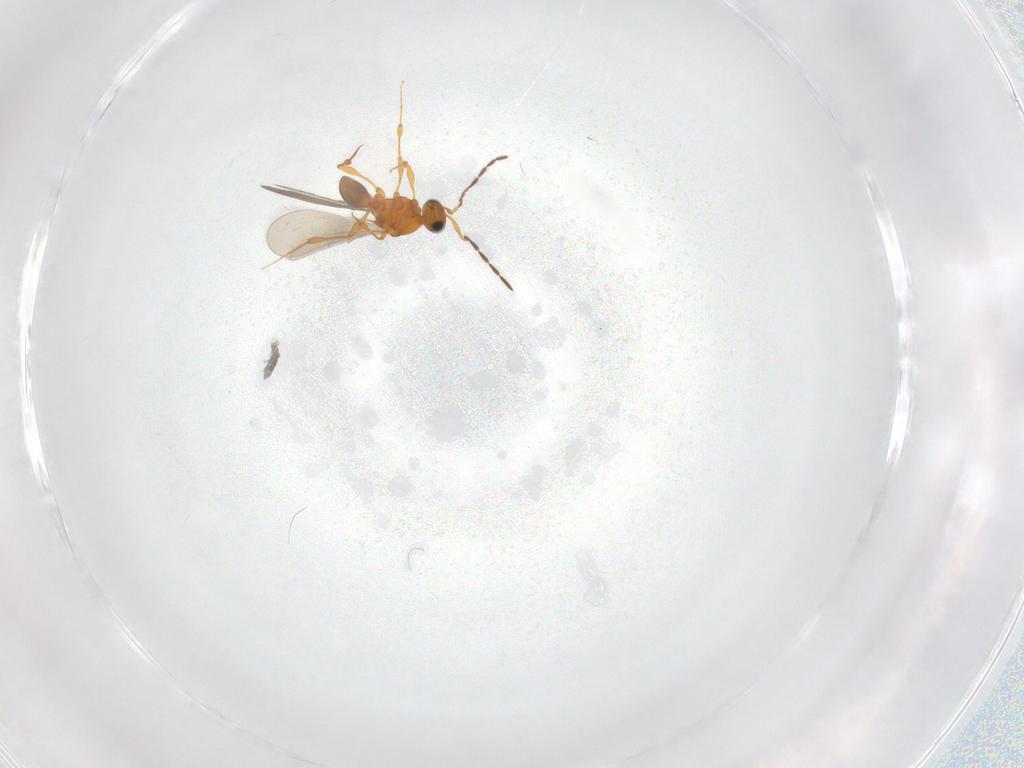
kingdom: Animalia
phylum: Arthropoda
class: Insecta
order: Hymenoptera
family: Platygastridae
